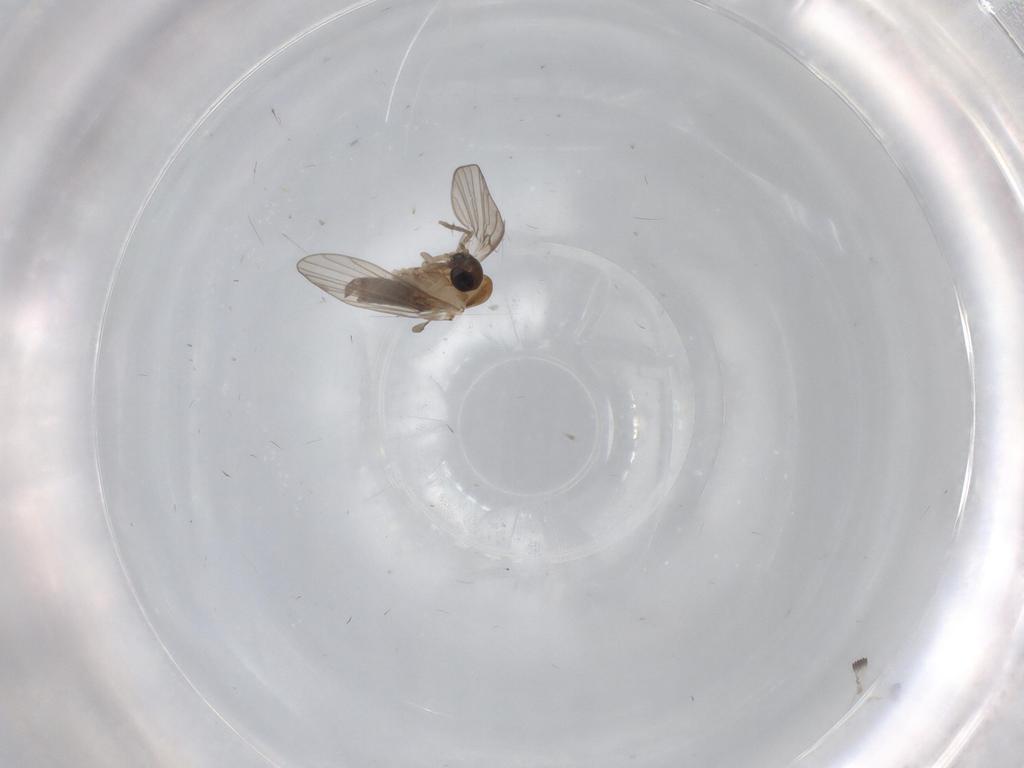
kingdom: Animalia
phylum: Arthropoda
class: Insecta
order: Diptera
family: Psychodidae
